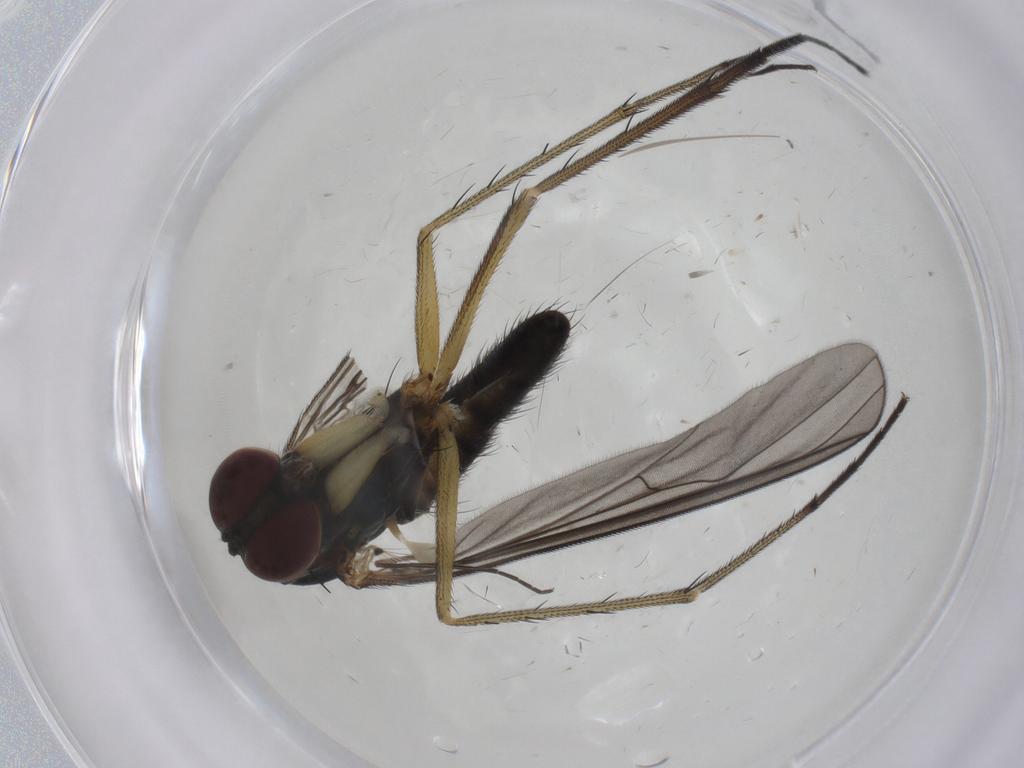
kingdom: Animalia
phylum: Arthropoda
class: Insecta
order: Diptera
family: Dolichopodidae
